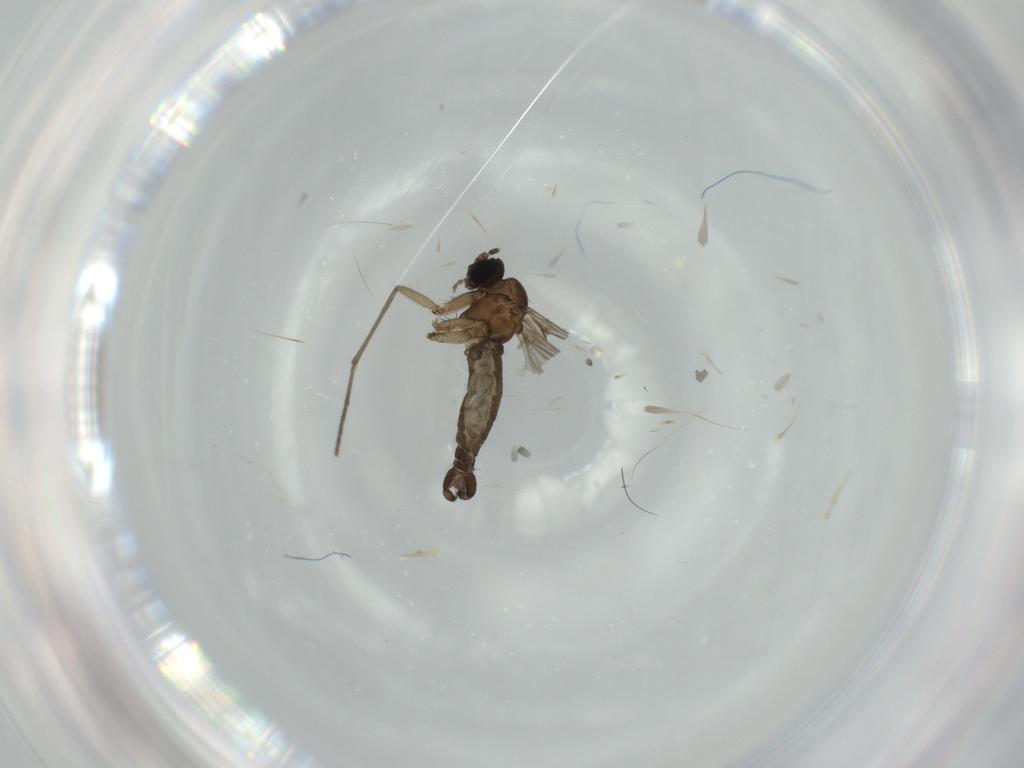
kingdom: Animalia
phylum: Arthropoda
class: Insecta
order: Diptera
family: Sciaridae
